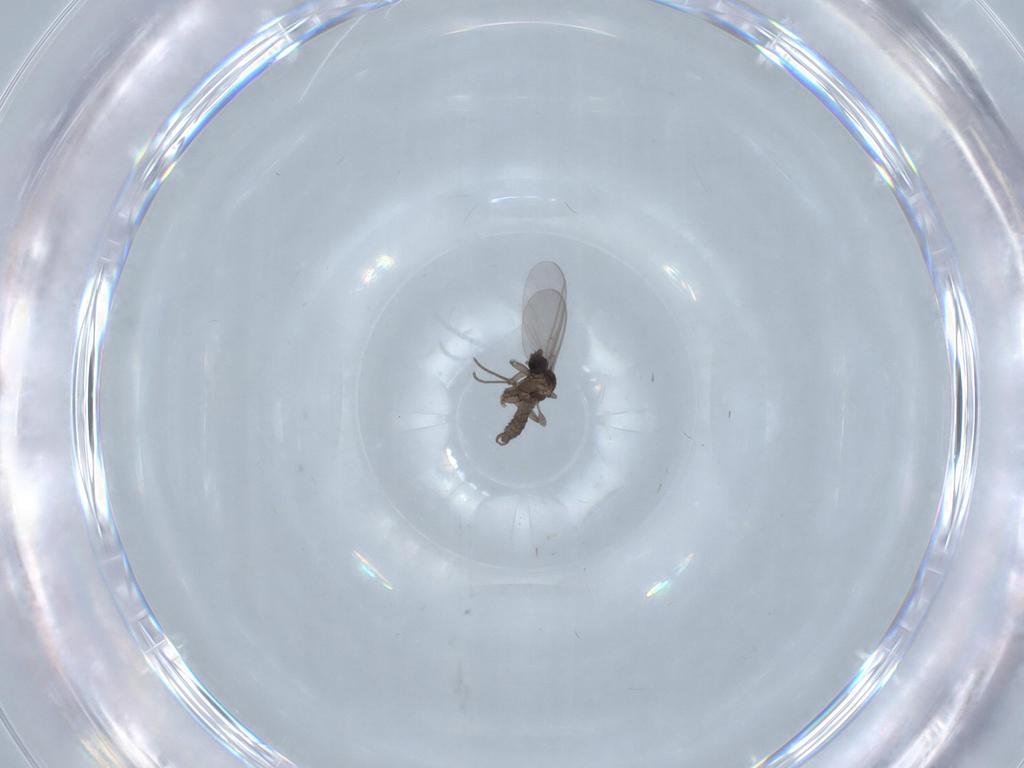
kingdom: Animalia
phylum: Arthropoda
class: Insecta
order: Diptera
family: Sciaridae
